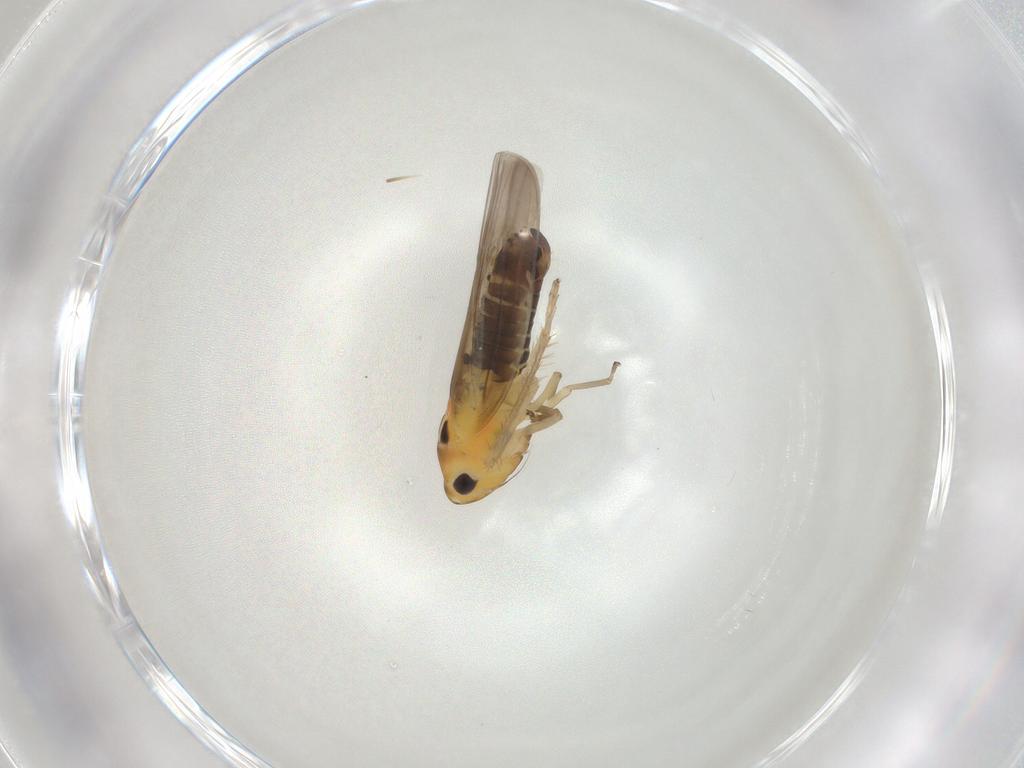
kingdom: Animalia
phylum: Arthropoda
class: Insecta
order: Hemiptera
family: Cicadellidae
